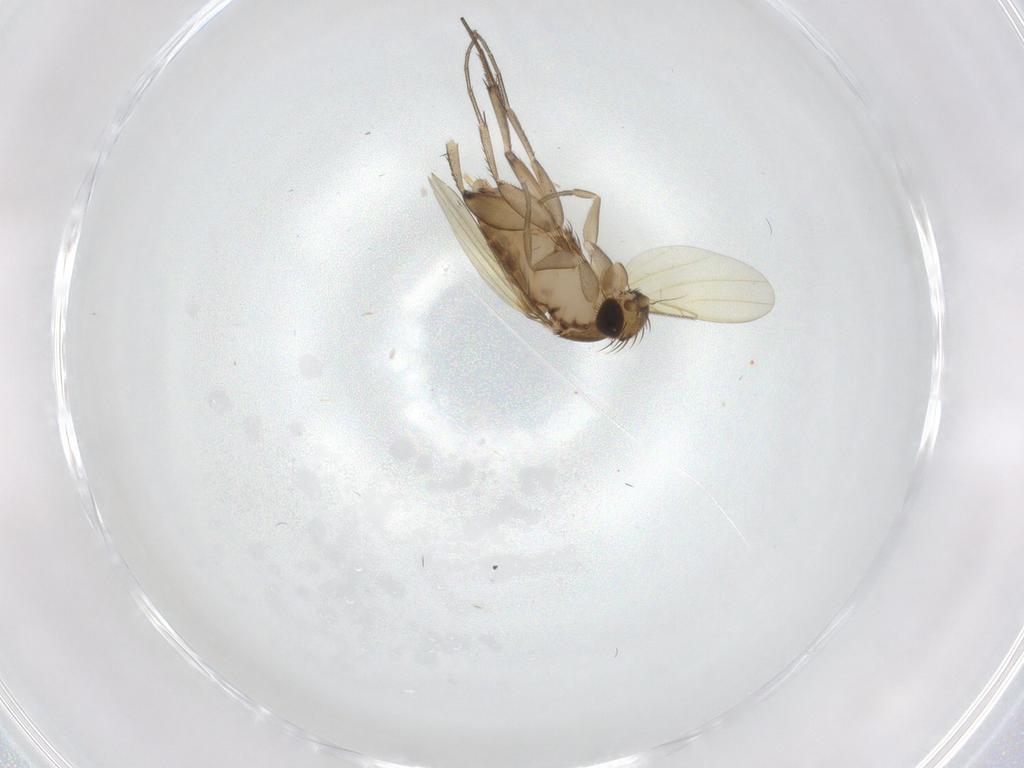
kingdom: Animalia
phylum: Arthropoda
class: Insecta
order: Diptera
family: Phoridae
